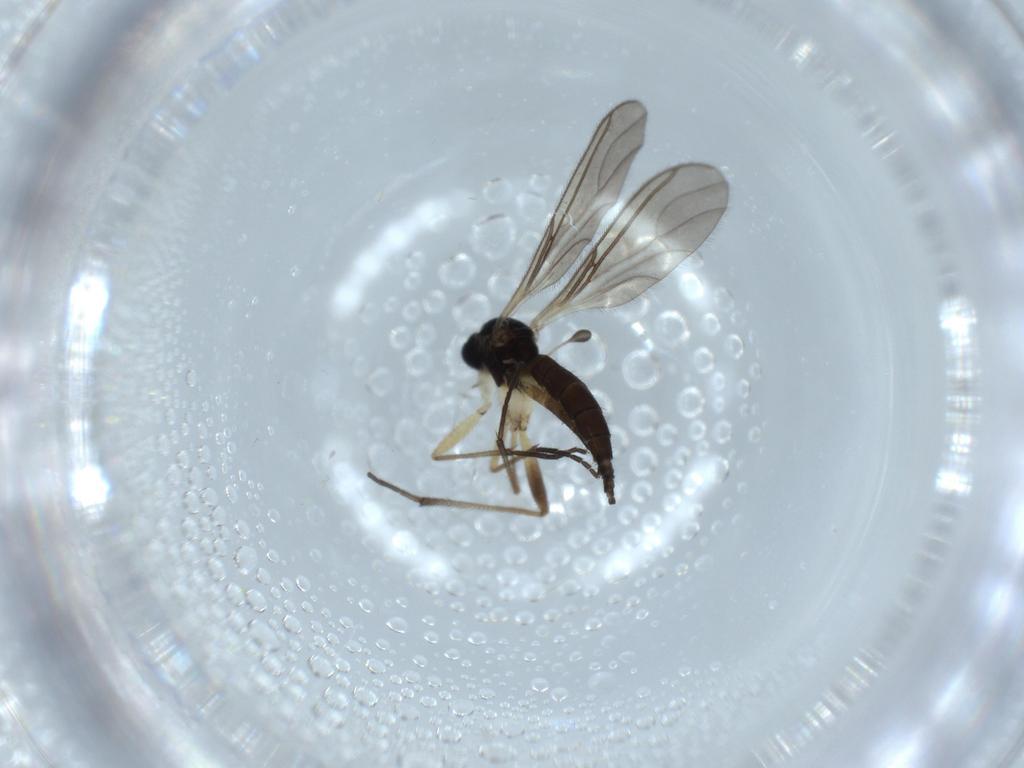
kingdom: Animalia
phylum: Arthropoda
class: Insecta
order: Diptera
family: Sciaridae
